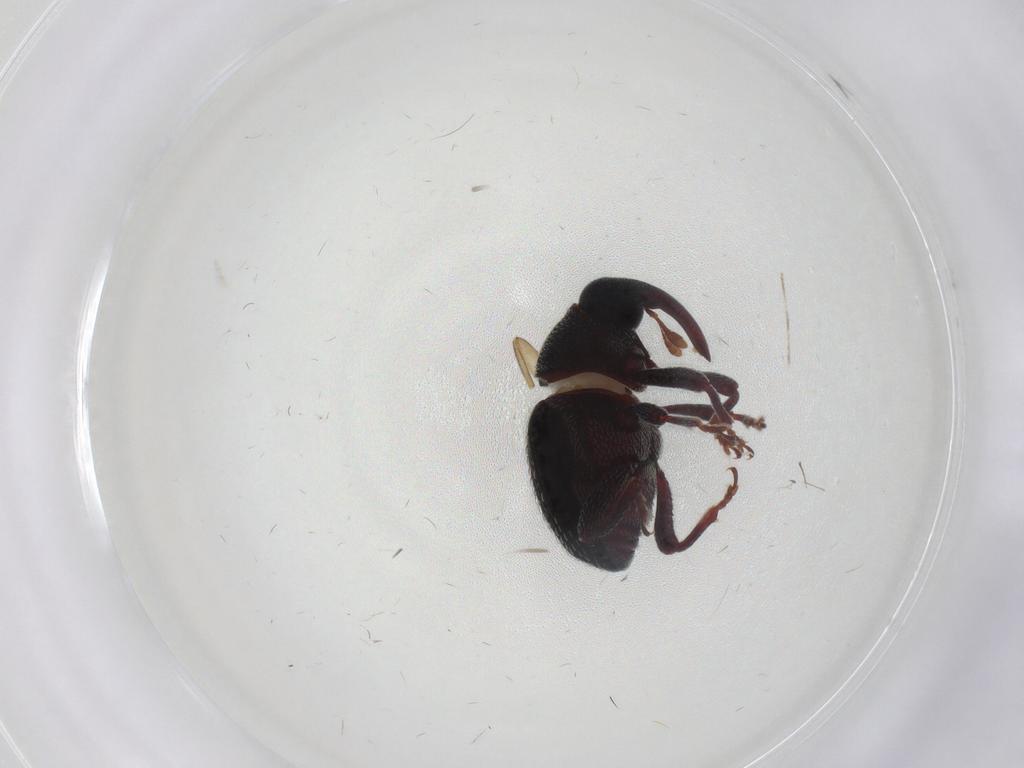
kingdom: Animalia
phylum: Arthropoda
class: Insecta
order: Coleoptera
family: Curculionidae
